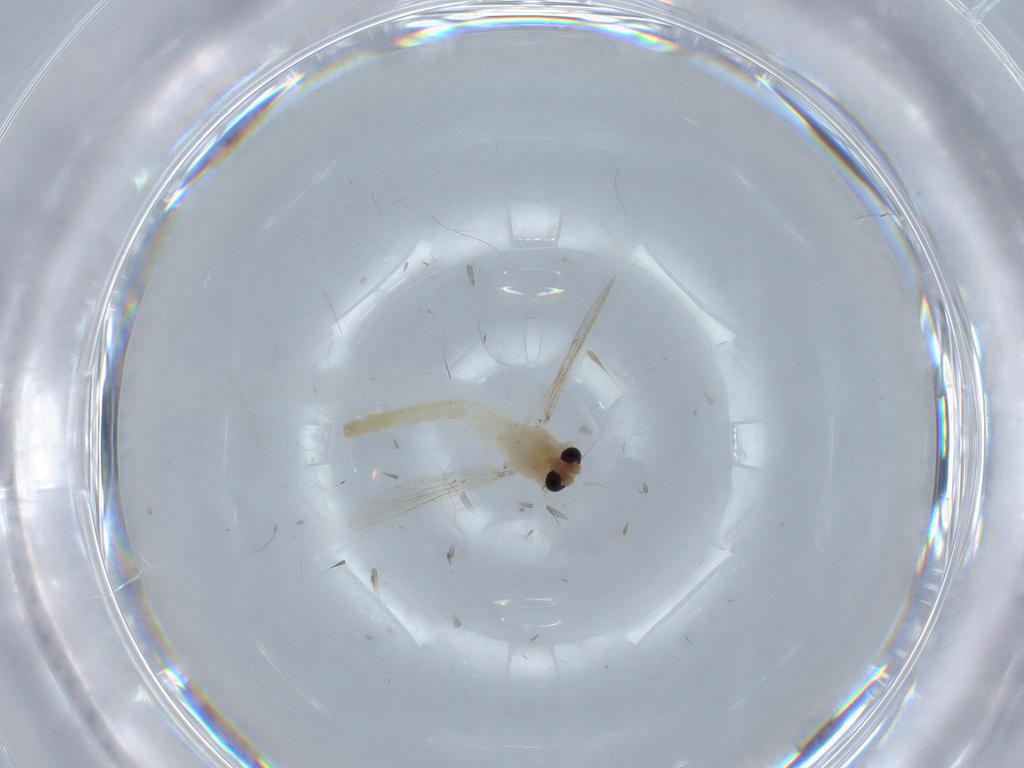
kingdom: Animalia
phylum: Arthropoda
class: Insecta
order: Diptera
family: Chironomidae
